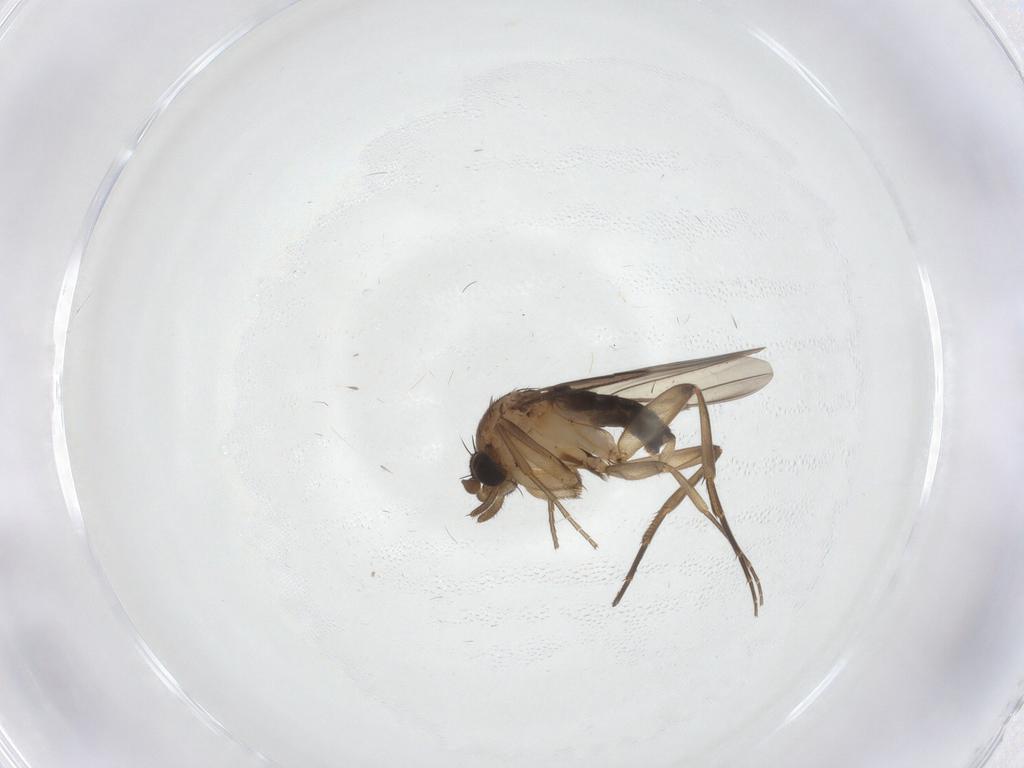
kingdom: Animalia
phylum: Arthropoda
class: Insecta
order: Diptera
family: Phoridae
